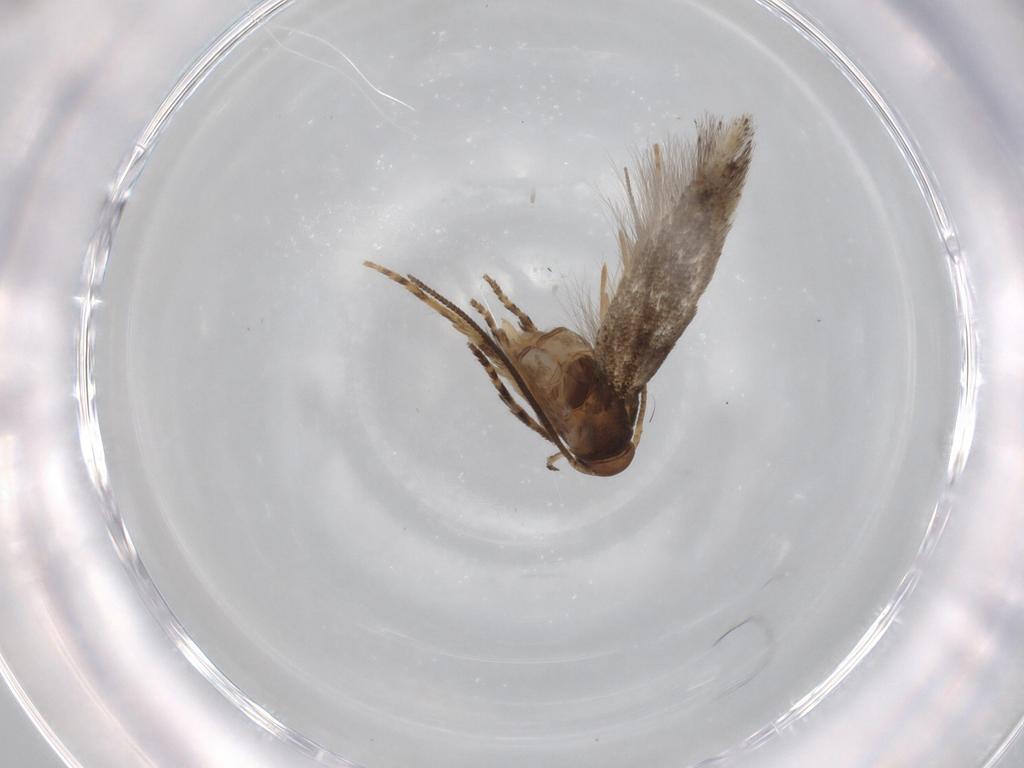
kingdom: Animalia
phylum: Arthropoda
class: Insecta
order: Lepidoptera
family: Elachistidae
